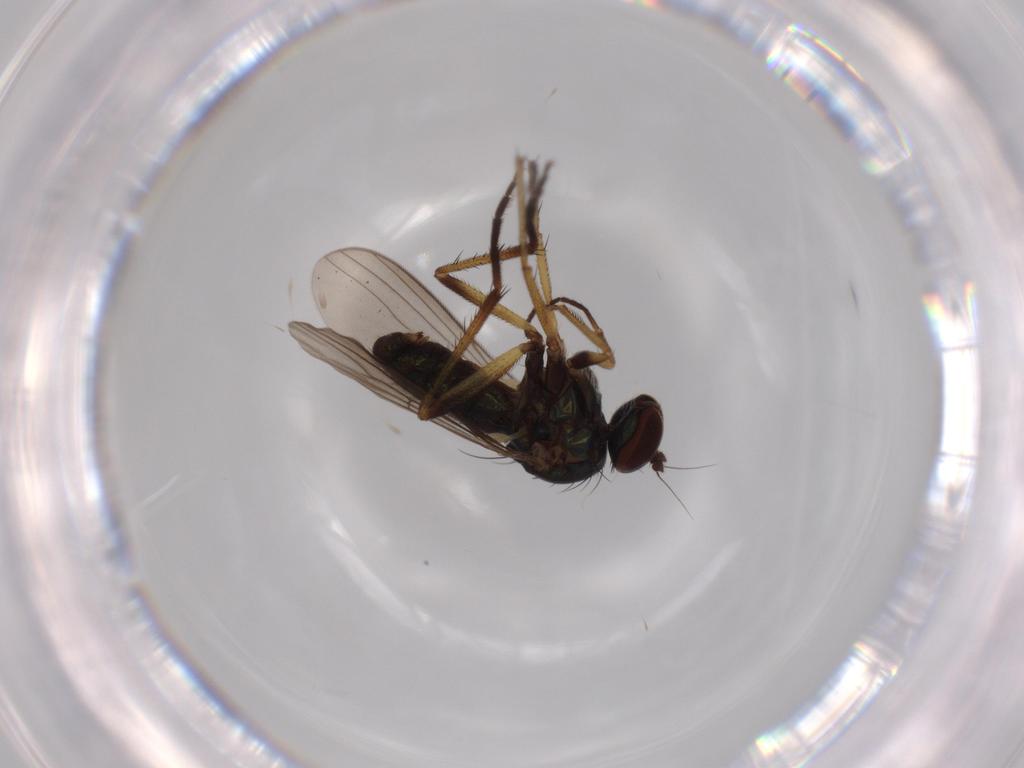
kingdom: Animalia
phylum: Arthropoda
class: Insecta
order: Diptera
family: Dolichopodidae
